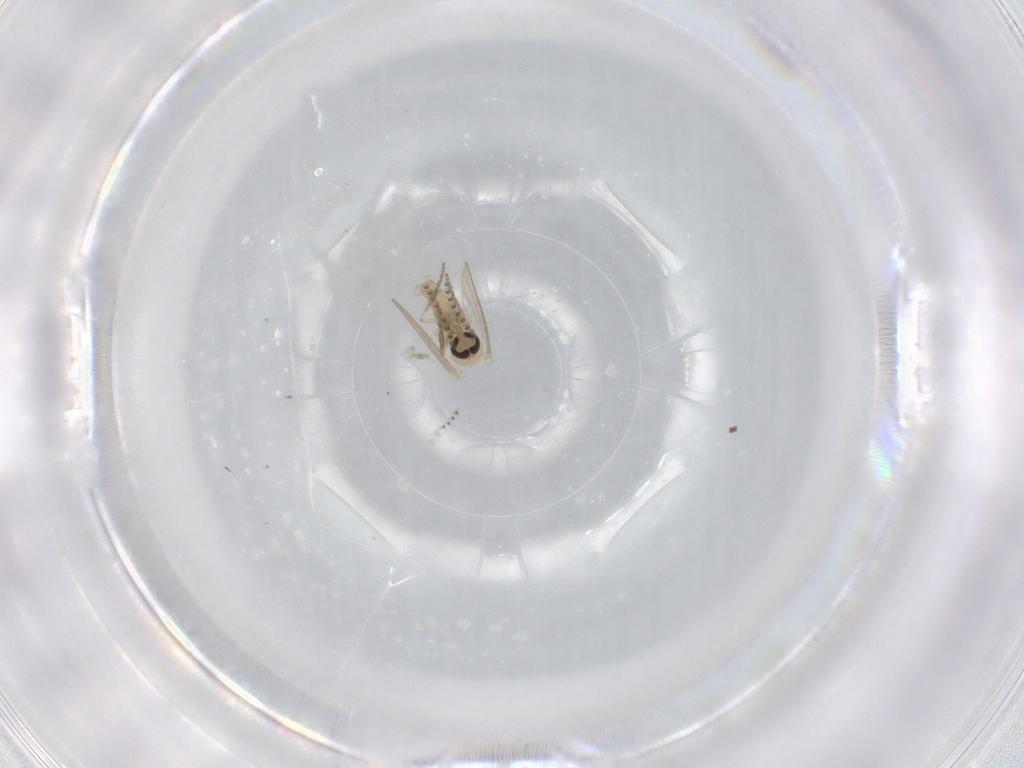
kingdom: Animalia
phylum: Arthropoda
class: Insecta
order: Diptera
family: Psychodidae
